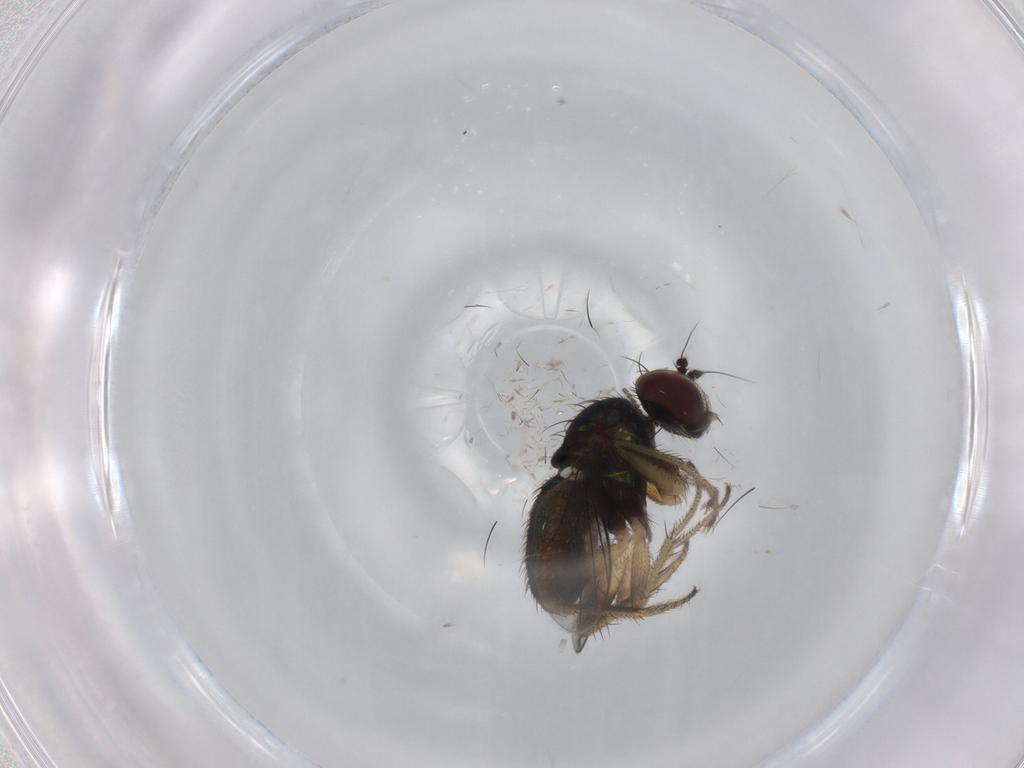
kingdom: Animalia
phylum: Arthropoda
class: Insecta
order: Diptera
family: Dolichopodidae
